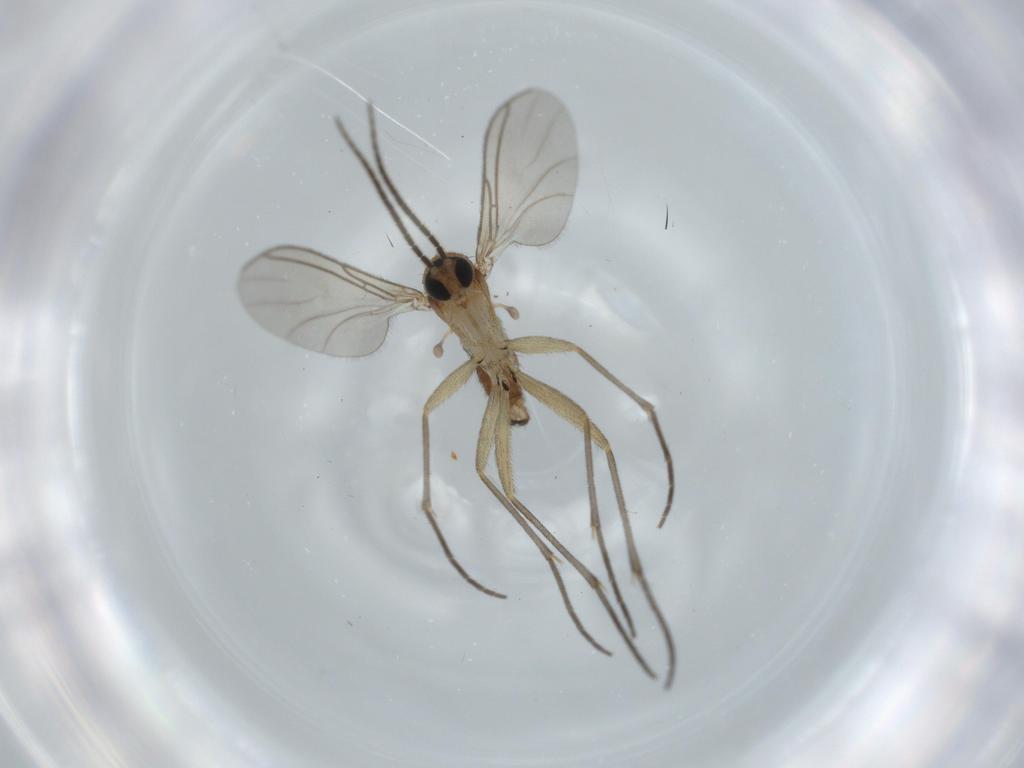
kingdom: Animalia
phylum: Arthropoda
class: Insecta
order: Diptera
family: Sciaridae
